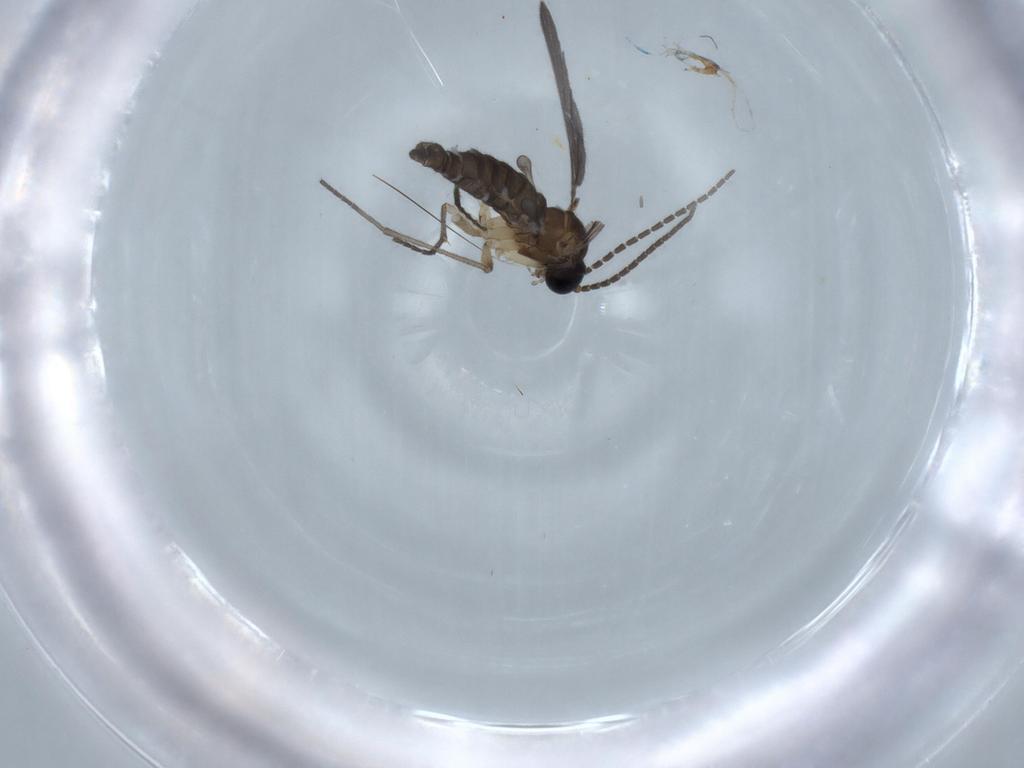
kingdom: Animalia
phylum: Arthropoda
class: Insecta
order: Diptera
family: Sciaridae
